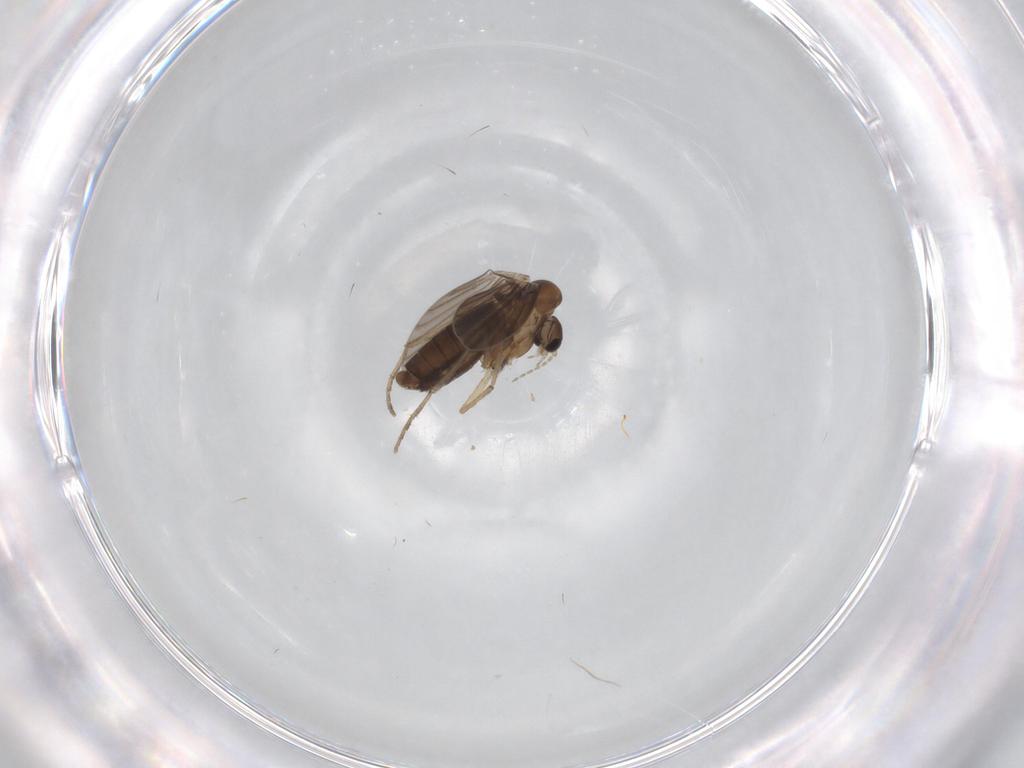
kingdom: Animalia
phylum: Arthropoda
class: Insecta
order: Diptera
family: Psychodidae
